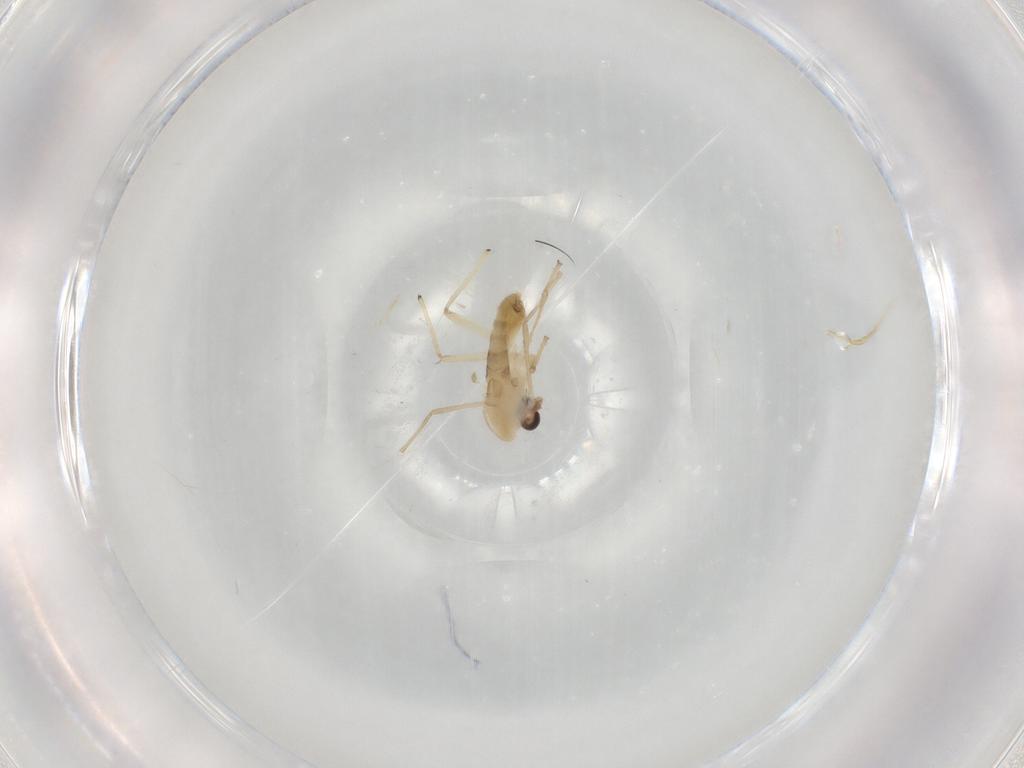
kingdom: Animalia
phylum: Arthropoda
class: Insecta
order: Diptera
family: Chironomidae
